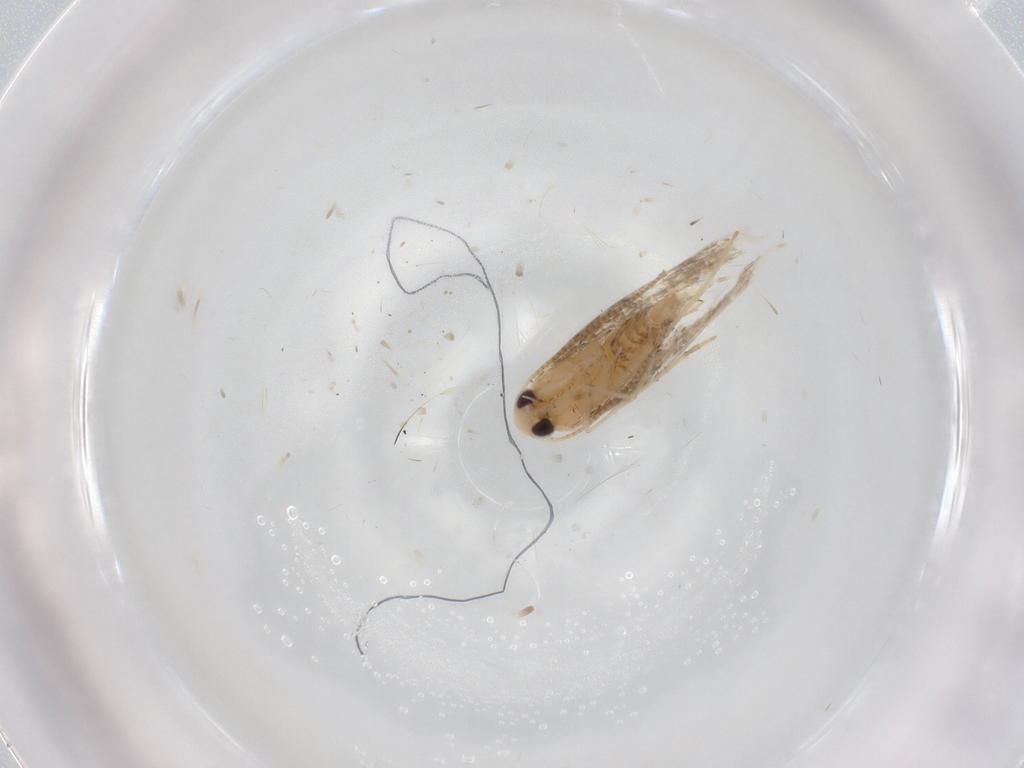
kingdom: Animalia
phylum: Arthropoda
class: Insecta
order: Lepidoptera
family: Gracillariidae
